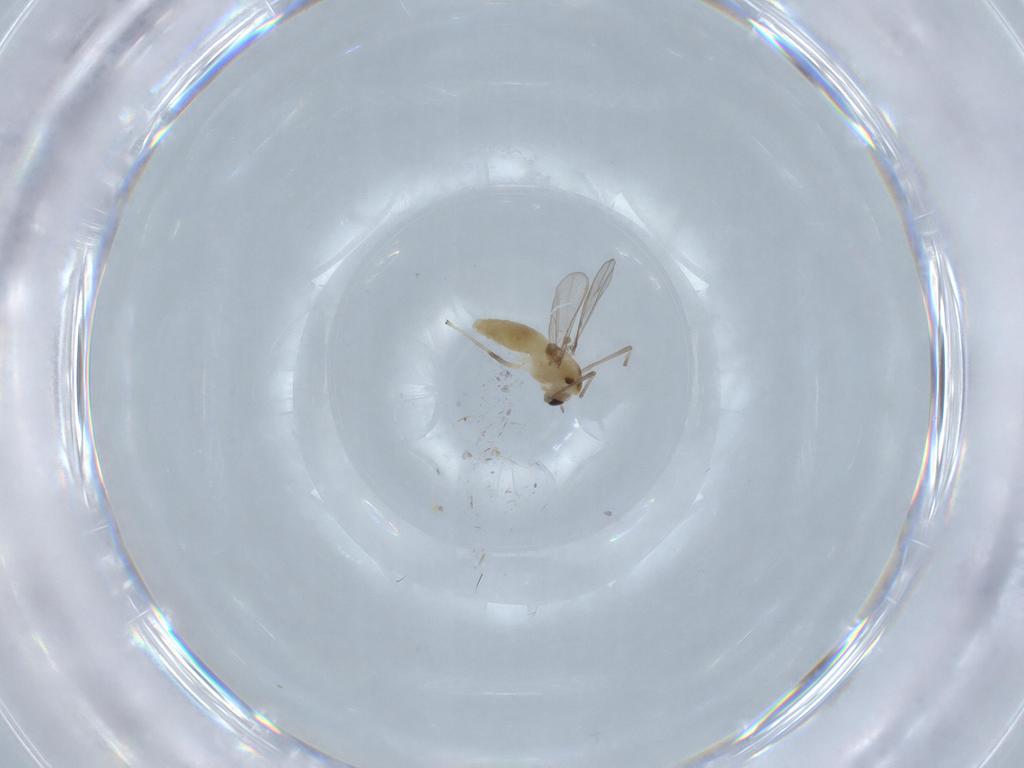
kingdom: Animalia
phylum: Arthropoda
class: Insecta
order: Diptera
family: Chironomidae
